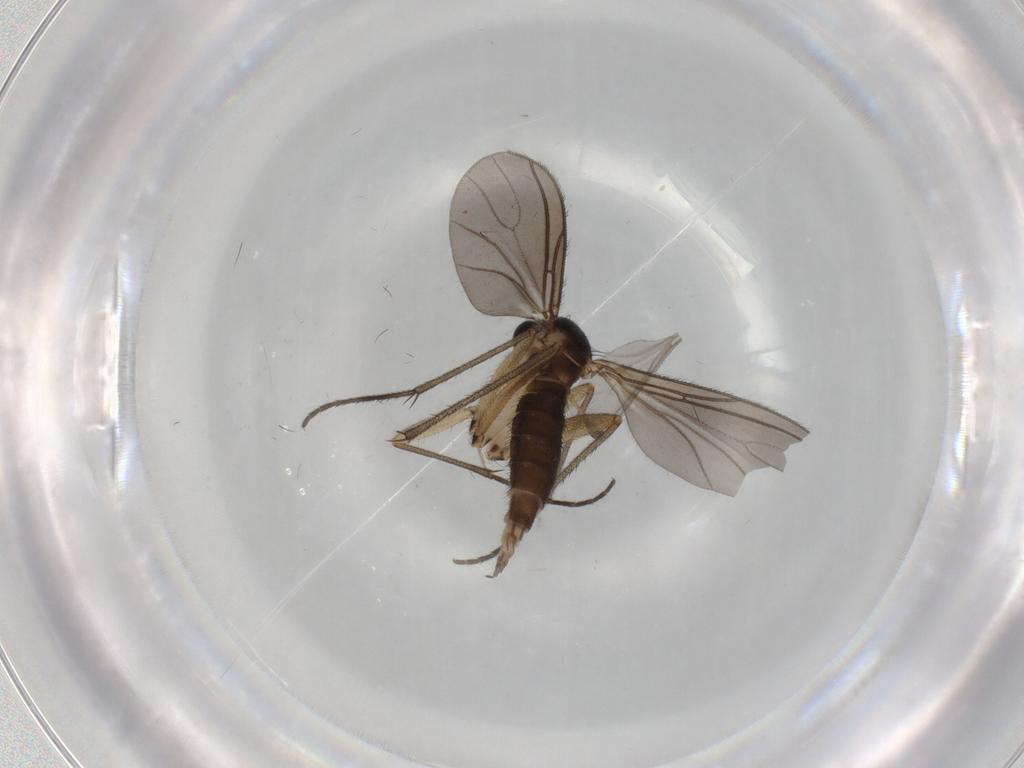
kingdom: Animalia
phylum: Arthropoda
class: Insecta
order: Diptera
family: Sciaridae
